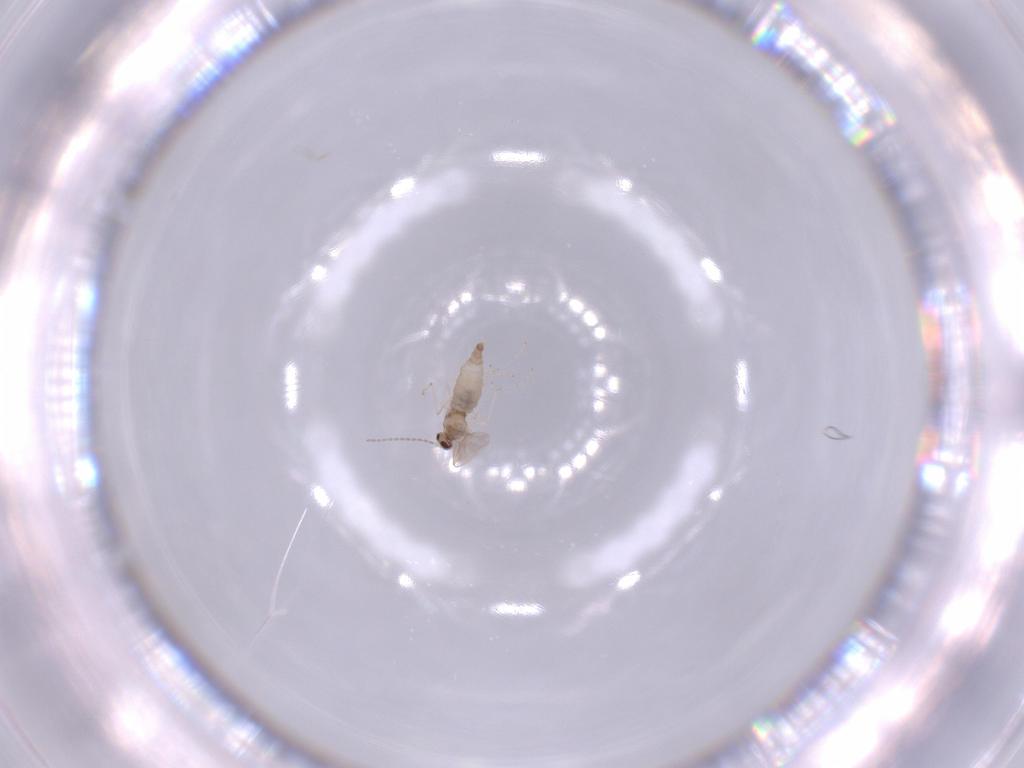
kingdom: Animalia
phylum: Arthropoda
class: Insecta
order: Diptera
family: Cecidomyiidae
